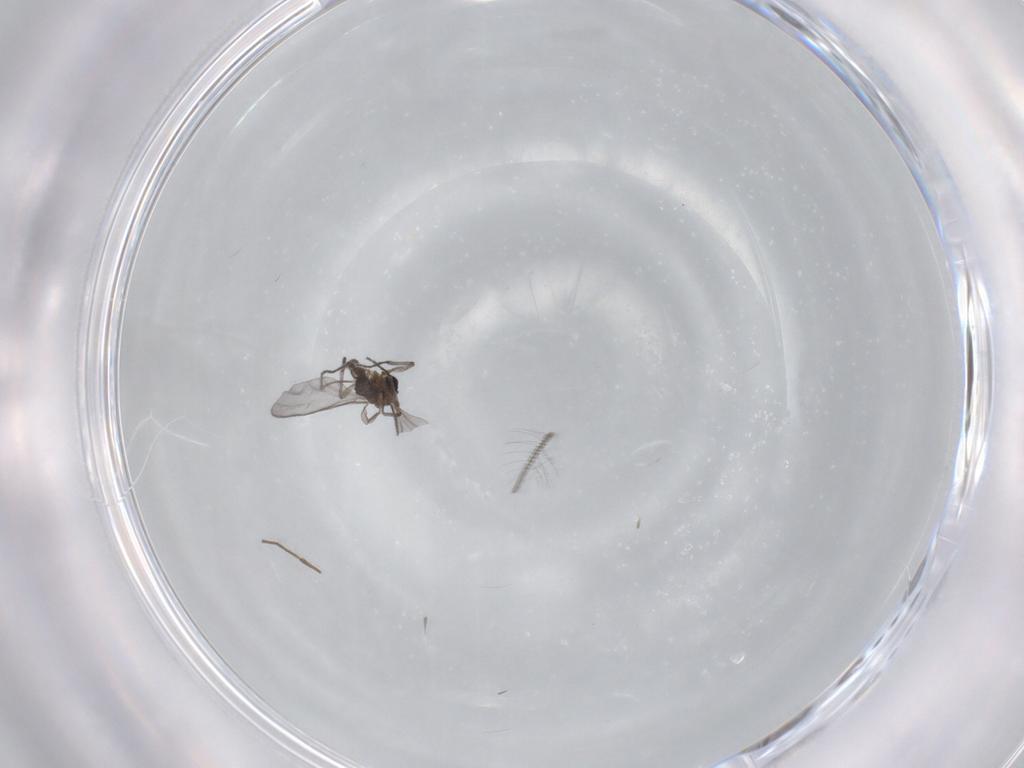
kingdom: Animalia
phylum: Arthropoda
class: Insecta
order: Diptera
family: Sciaridae
